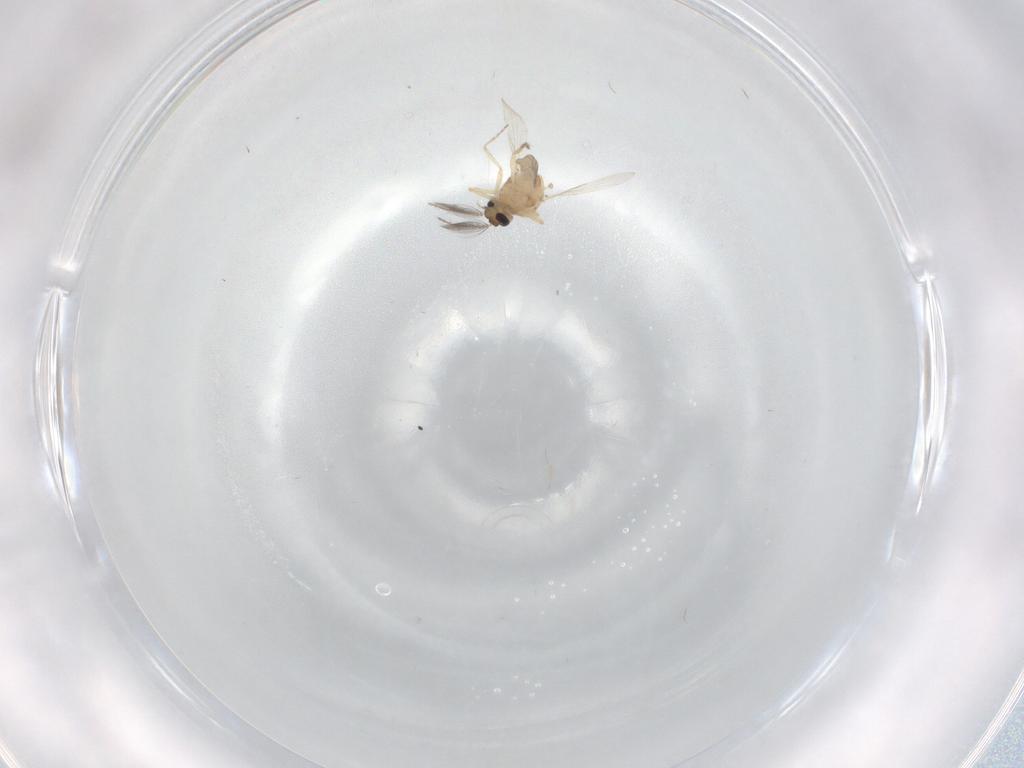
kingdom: Animalia
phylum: Arthropoda
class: Insecta
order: Diptera
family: Ceratopogonidae
